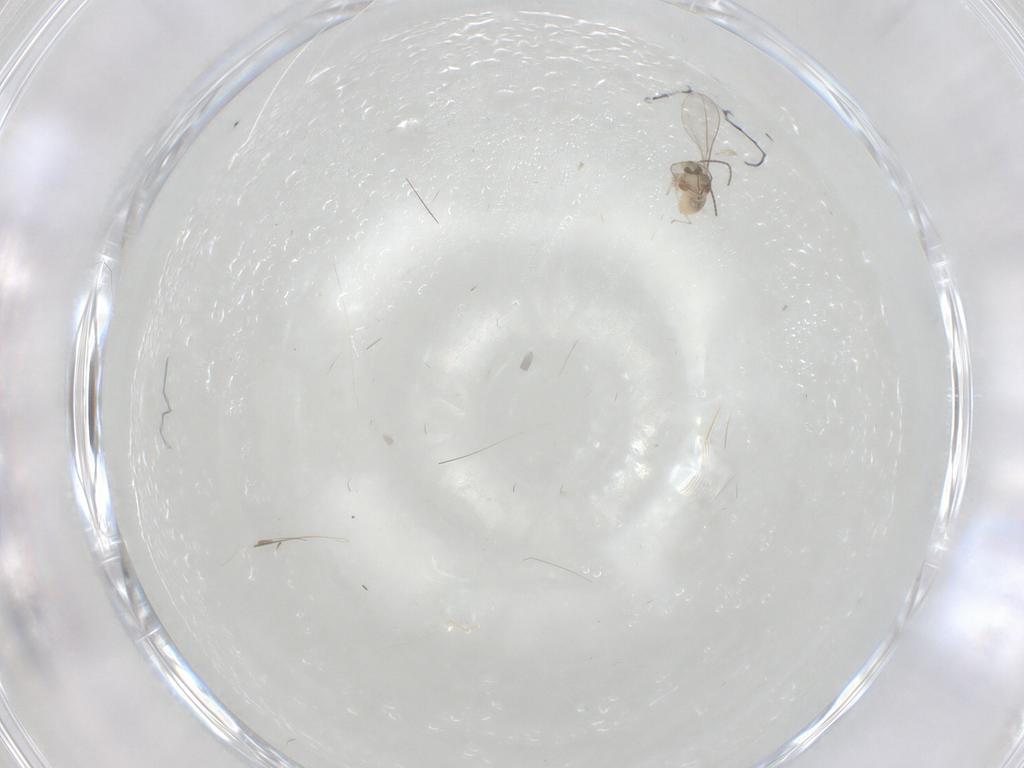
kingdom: Animalia
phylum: Arthropoda
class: Insecta
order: Diptera
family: Cecidomyiidae
